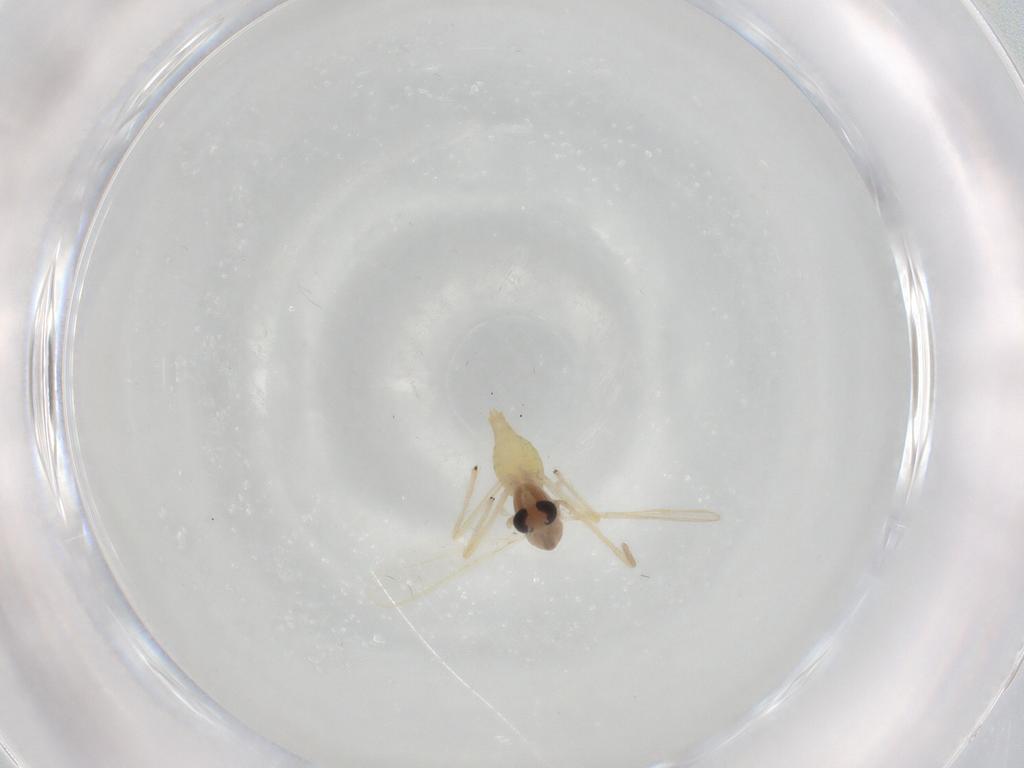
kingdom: Animalia
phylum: Arthropoda
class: Insecta
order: Diptera
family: Chironomidae
